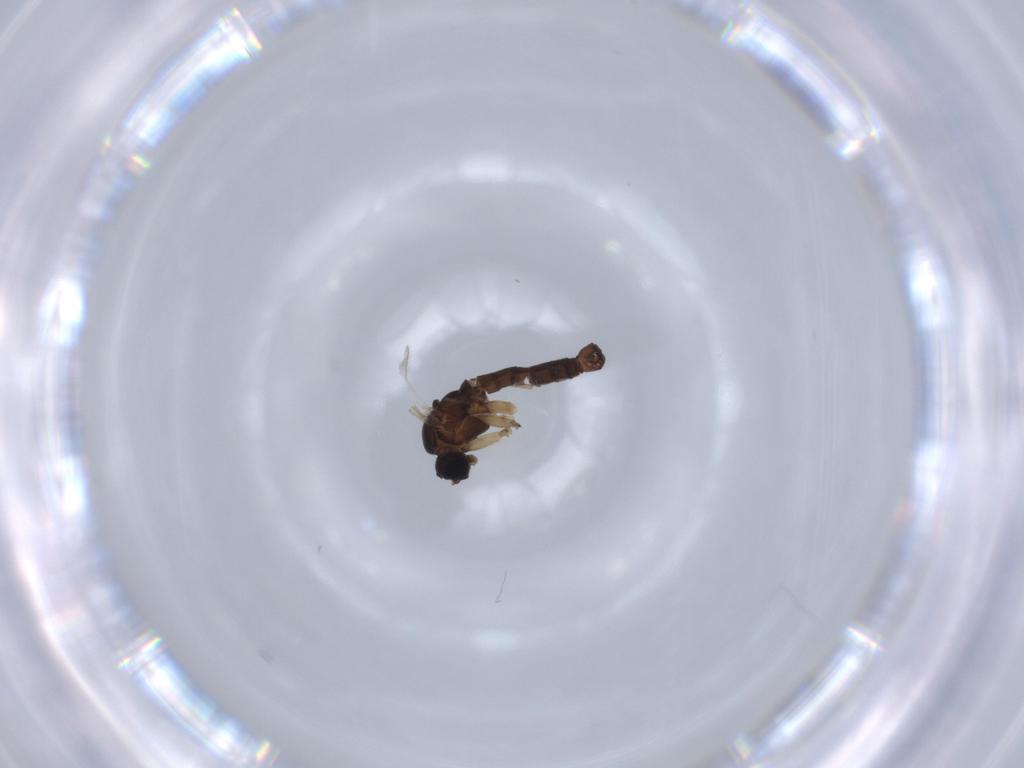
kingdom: Animalia
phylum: Arthropoda
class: Insecta
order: Diptera
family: Sciaridae
